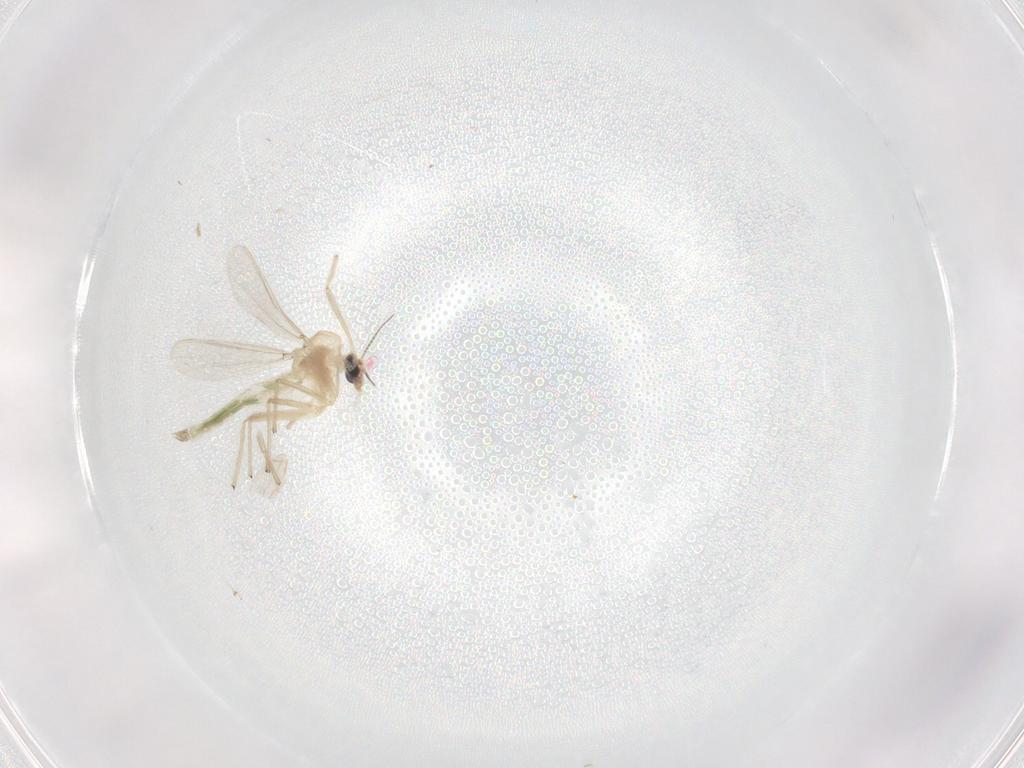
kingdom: Animalia
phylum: Arthropoda
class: Insecta
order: Diptera
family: Chironomidae
